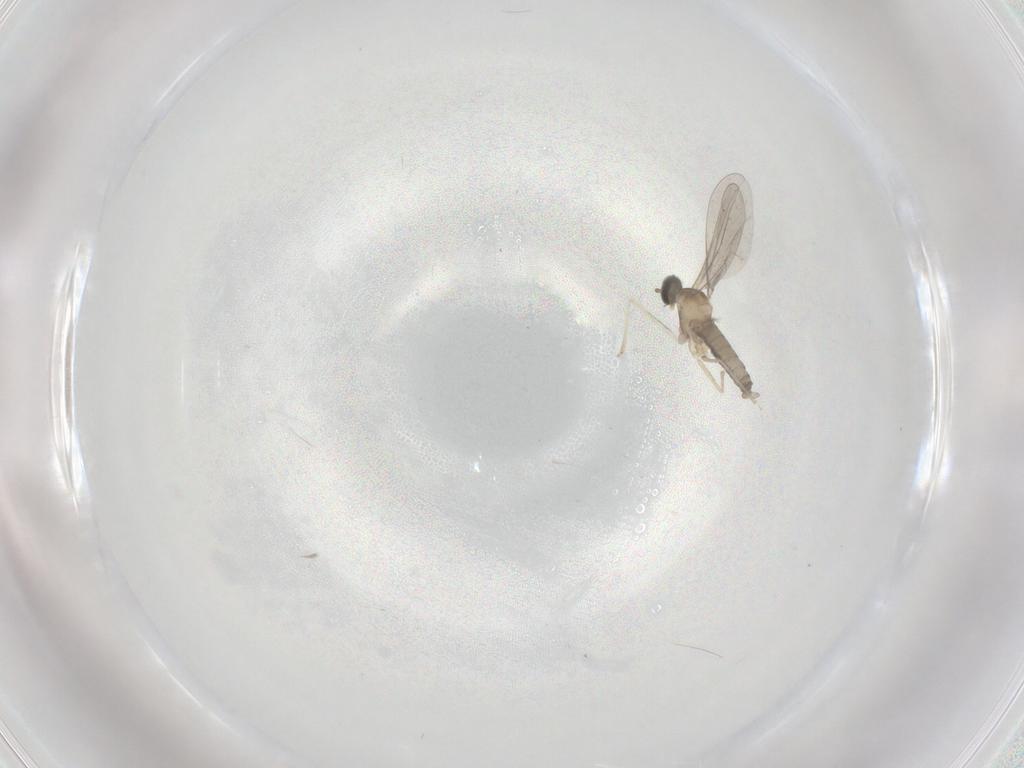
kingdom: Animalia
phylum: Arthropoda
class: Insecta
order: Diptera
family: Cecidomyiidae
